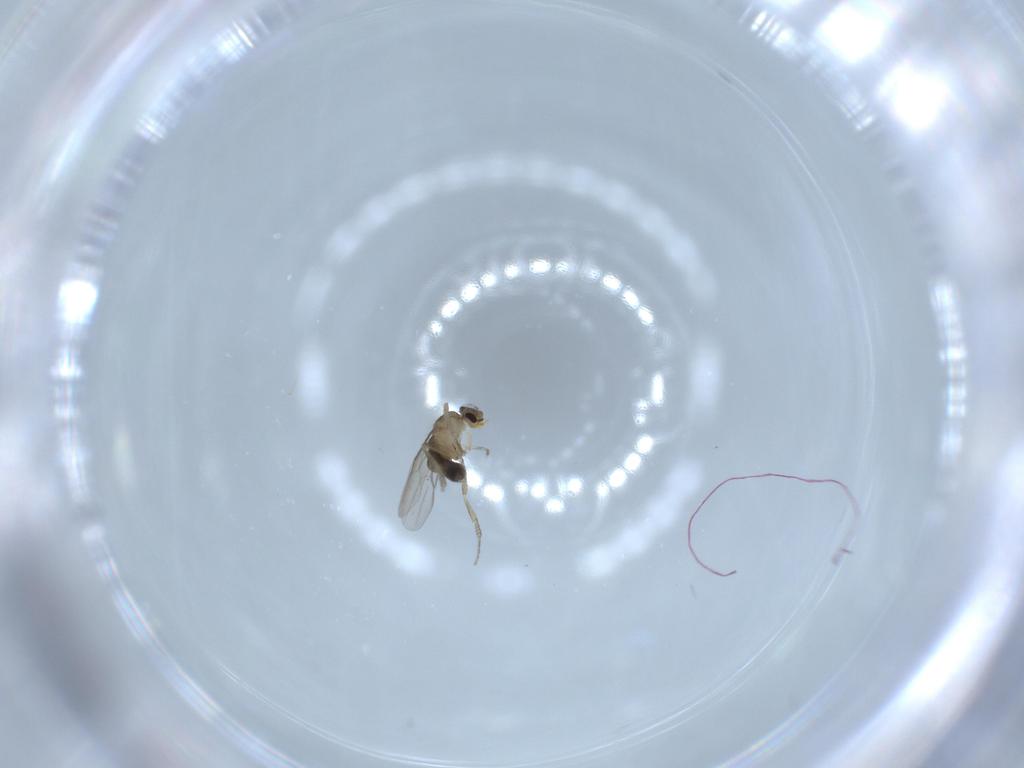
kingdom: Animalia
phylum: Arthropoda
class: Insecta
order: Diptera
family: Phoridae
